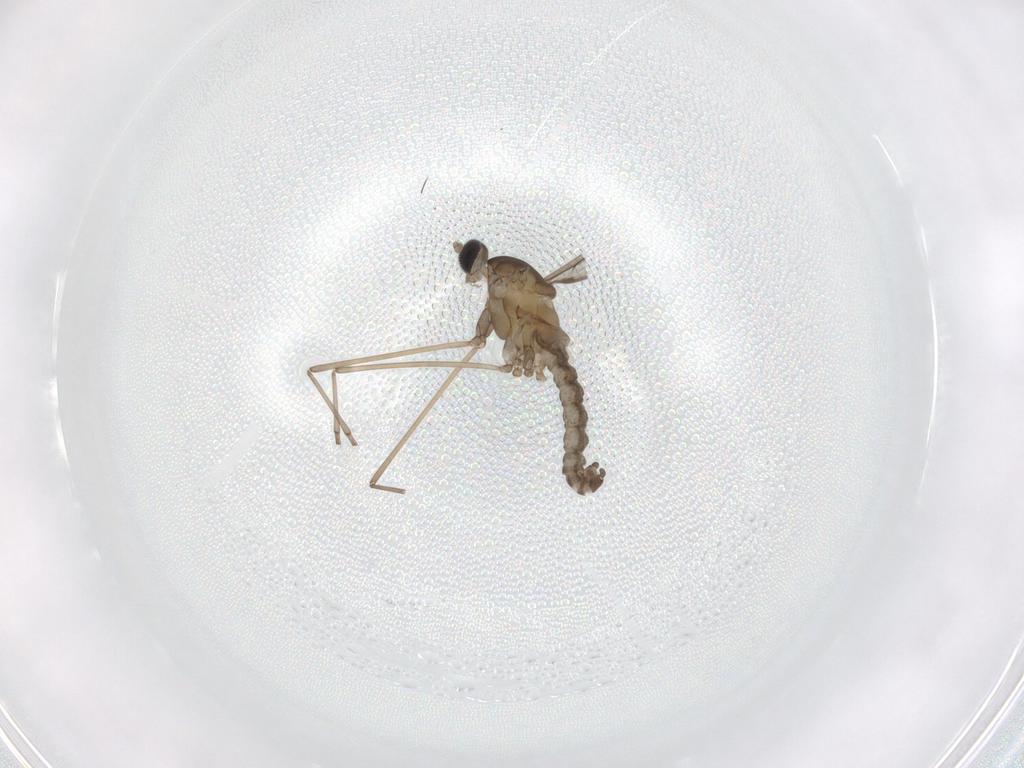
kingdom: Animalia
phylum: Arthropoda
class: Insecta
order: Diptera
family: Cecidomyiidae
